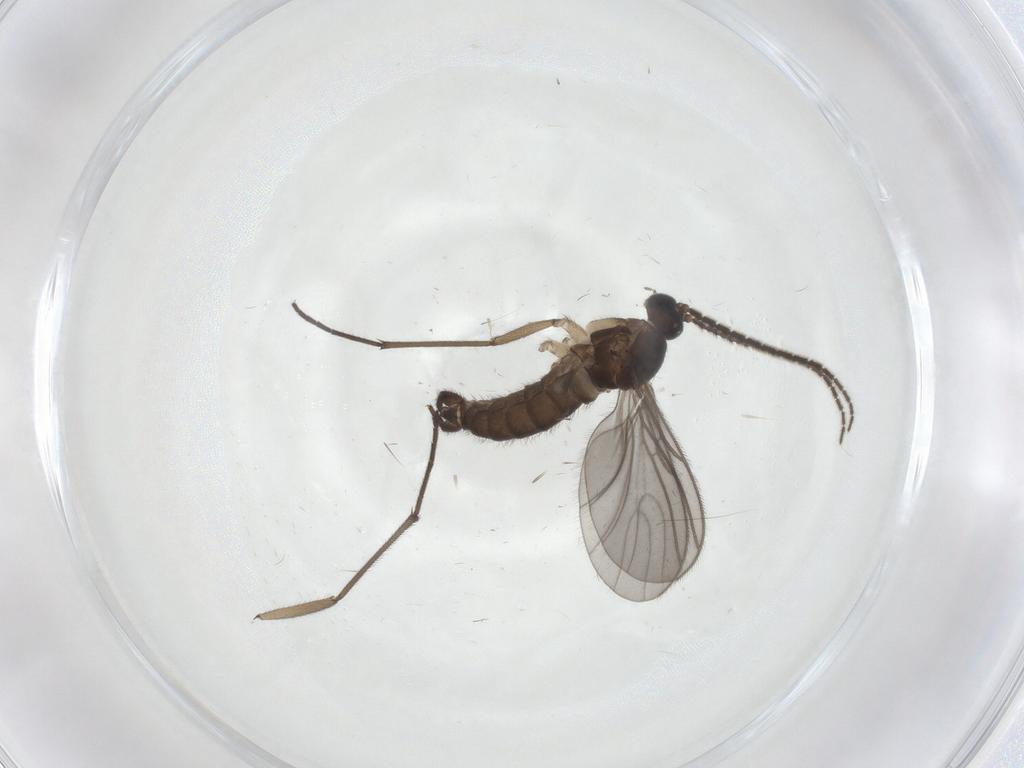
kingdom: Animalia
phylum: Arthropoda
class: Insecta
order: Diptera
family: Sciaridae
